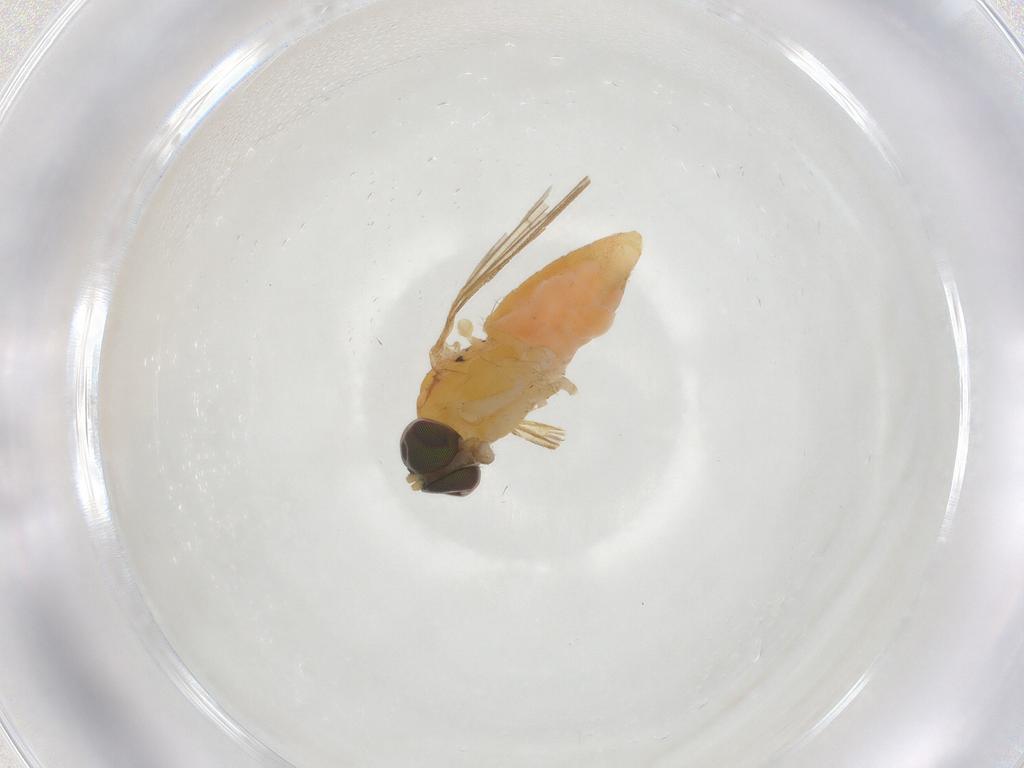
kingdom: Animalia
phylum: Arthropoda
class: Insecta
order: Diptera
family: Dolichopodidae
